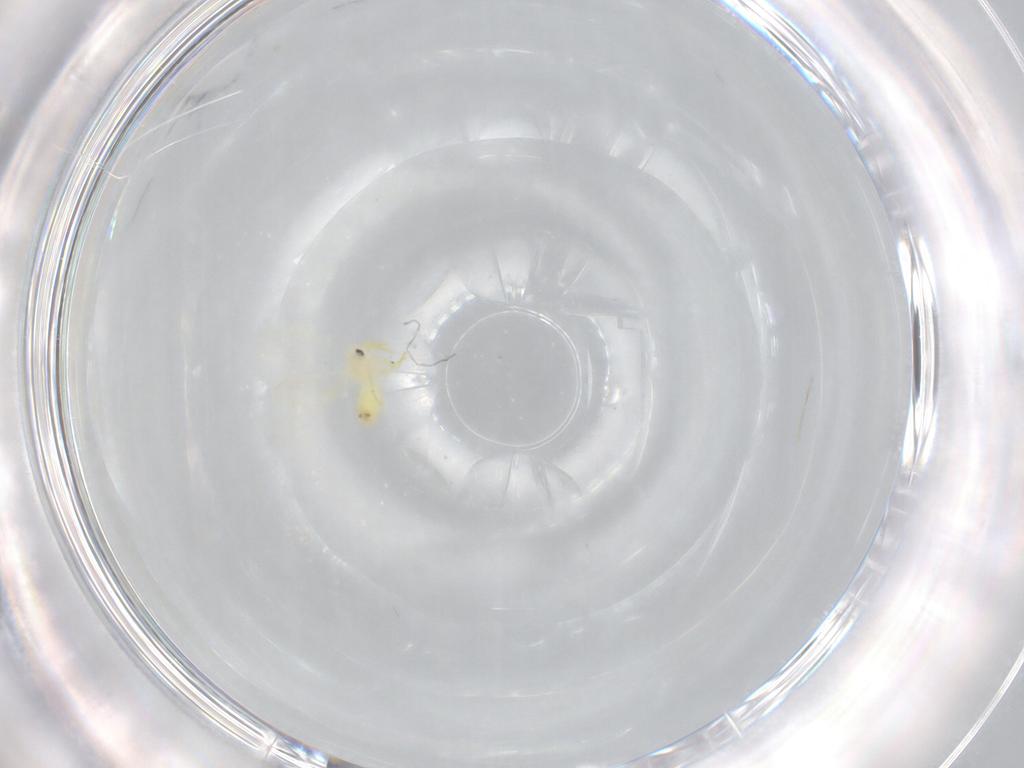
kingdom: Animalia
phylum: Arthropoda
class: Insecta
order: Hemiptera
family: Aleyrodidae
